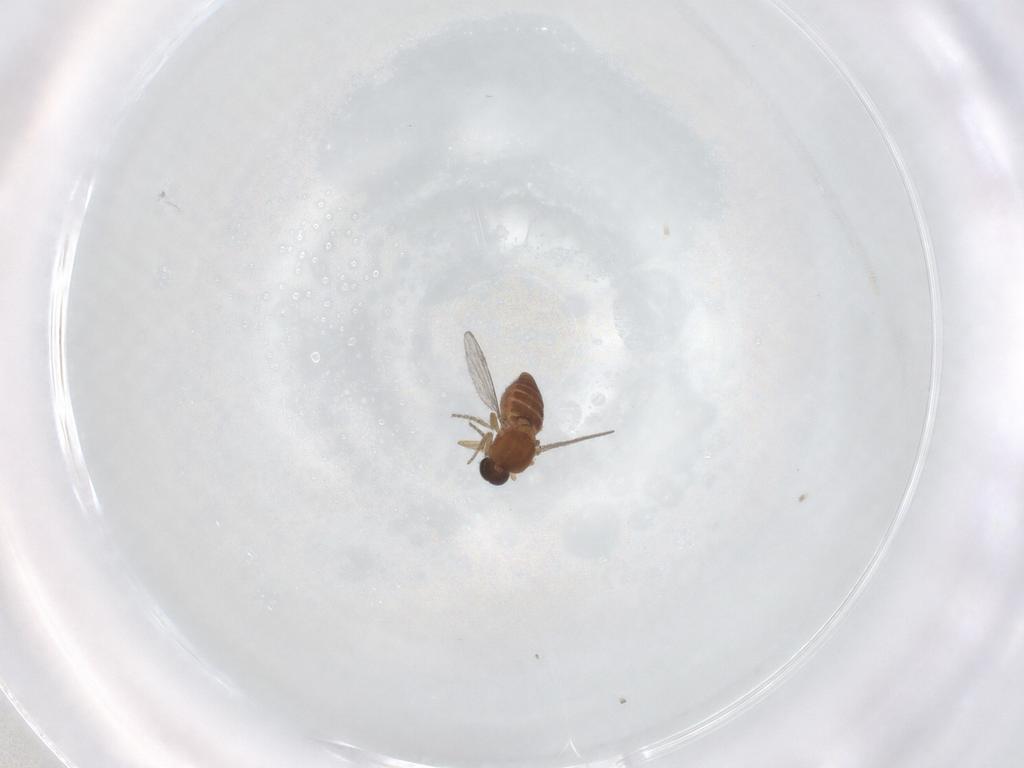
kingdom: Animalia
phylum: Arthropoda
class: Insecta
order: Diptera
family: Ceratopogonidae
